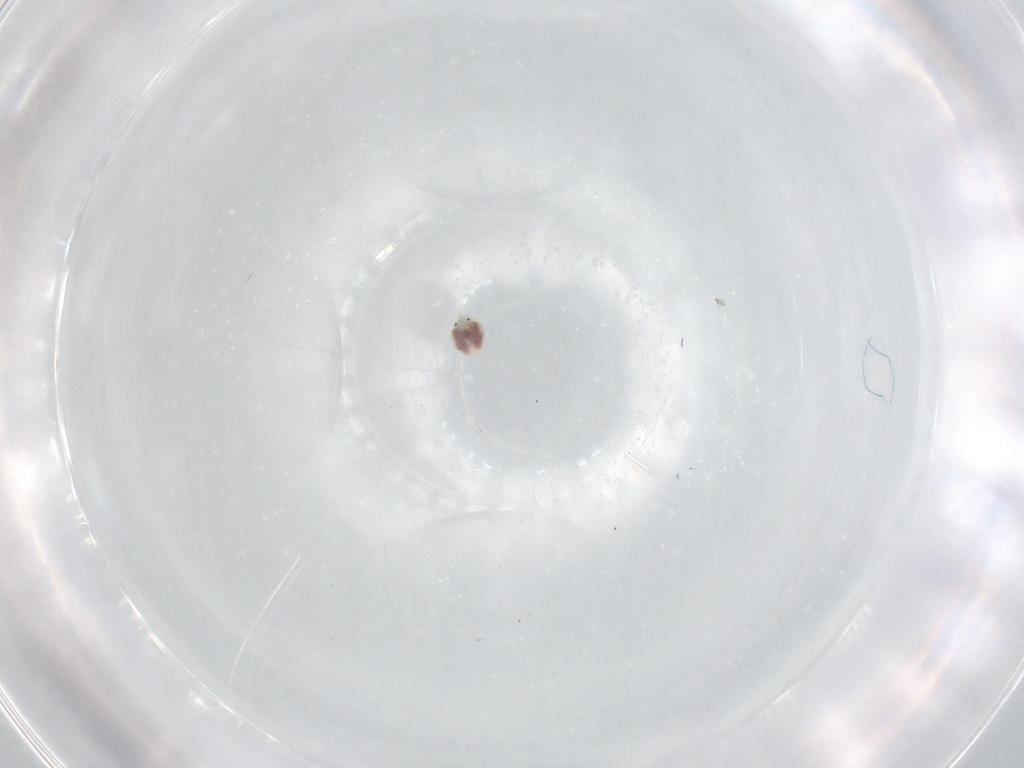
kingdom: Animalia
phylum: Arthropoda
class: Arachnida
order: Trombidiformes
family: Unionicolidae
